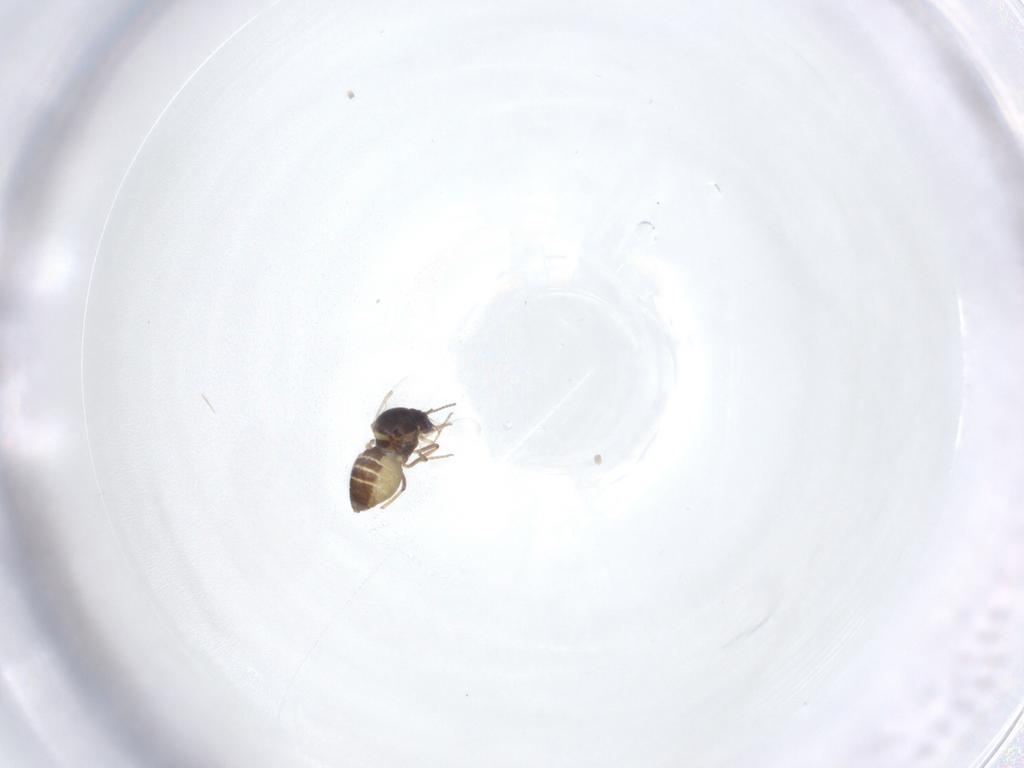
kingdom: Animalia
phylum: Arthropoda
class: Insecta
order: Diptera
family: Ceratopogonidae
